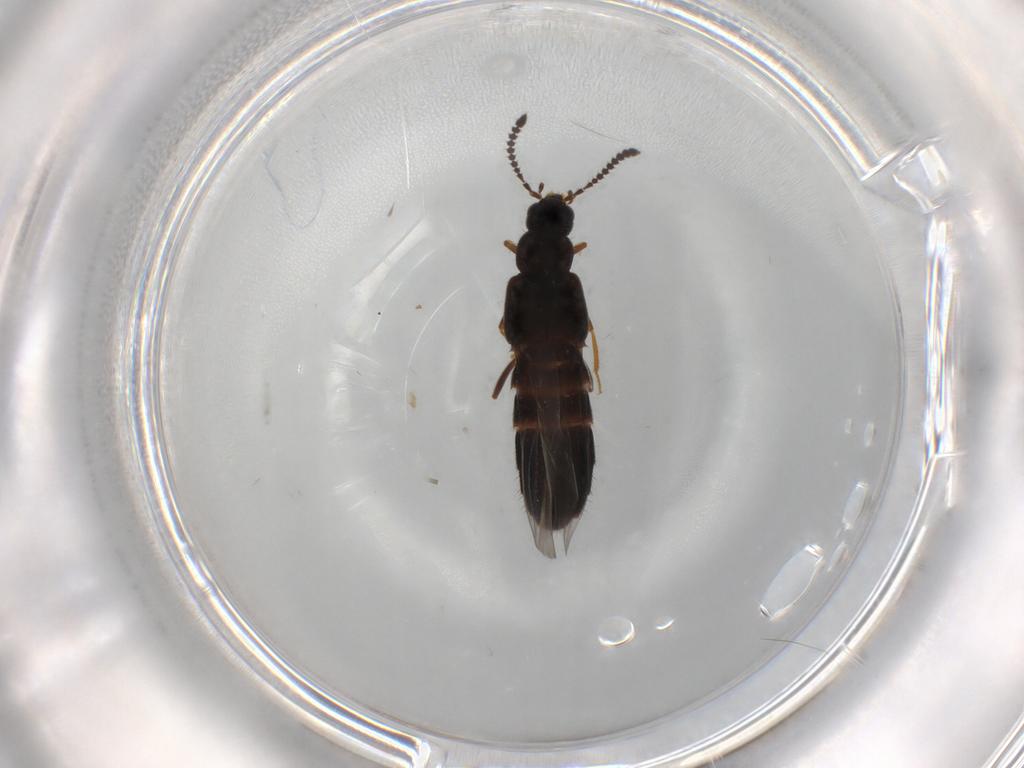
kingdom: Animalia
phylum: Arthropoda
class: Insecta
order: Coleoptera
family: Staphylinidae
